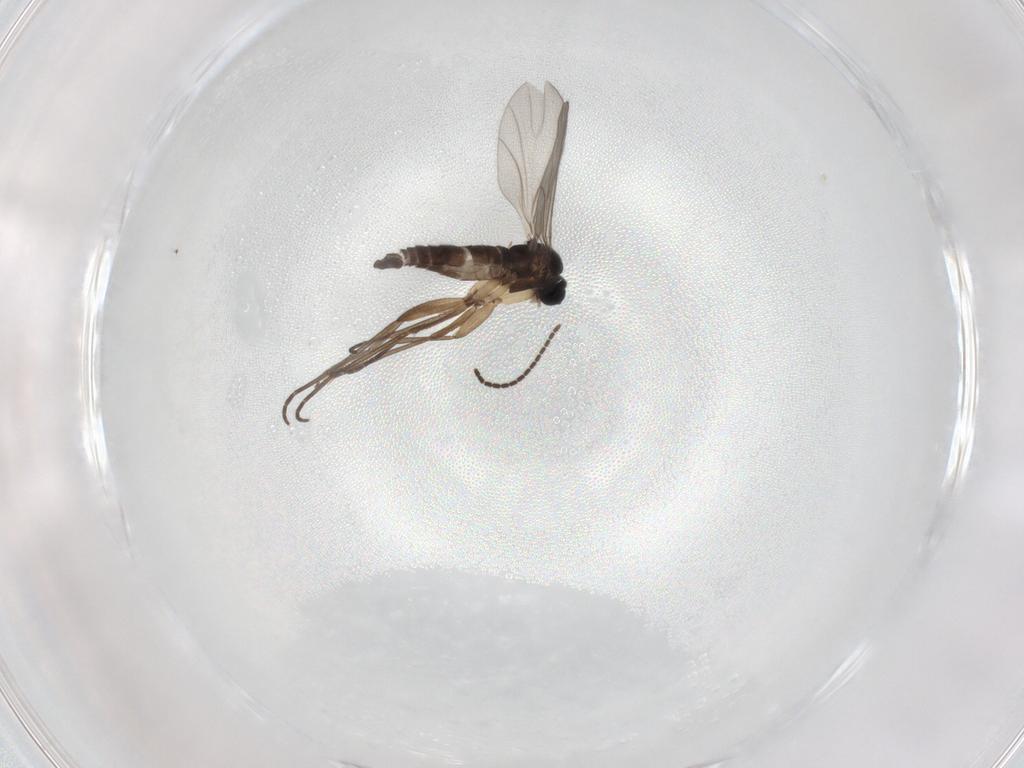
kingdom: Animalia
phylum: Arthropoda
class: Insecta
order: Diptera
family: Sciaridae
